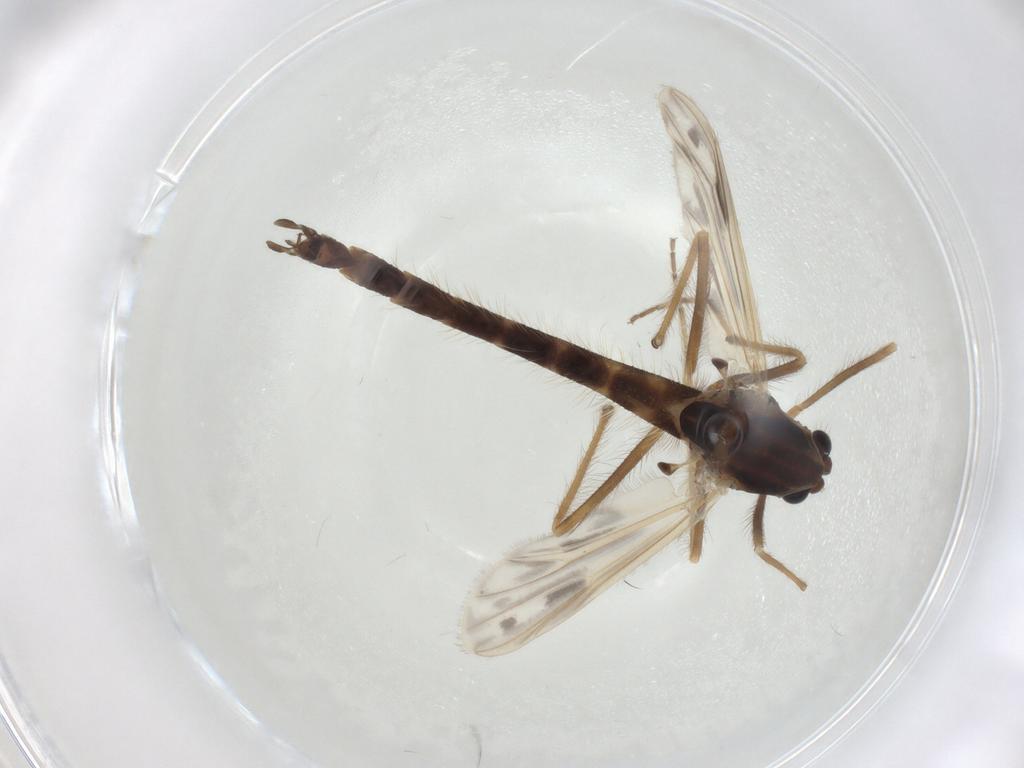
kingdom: Animalia
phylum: Arthropoda
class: Insecta
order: Diptera
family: Chironomidae
